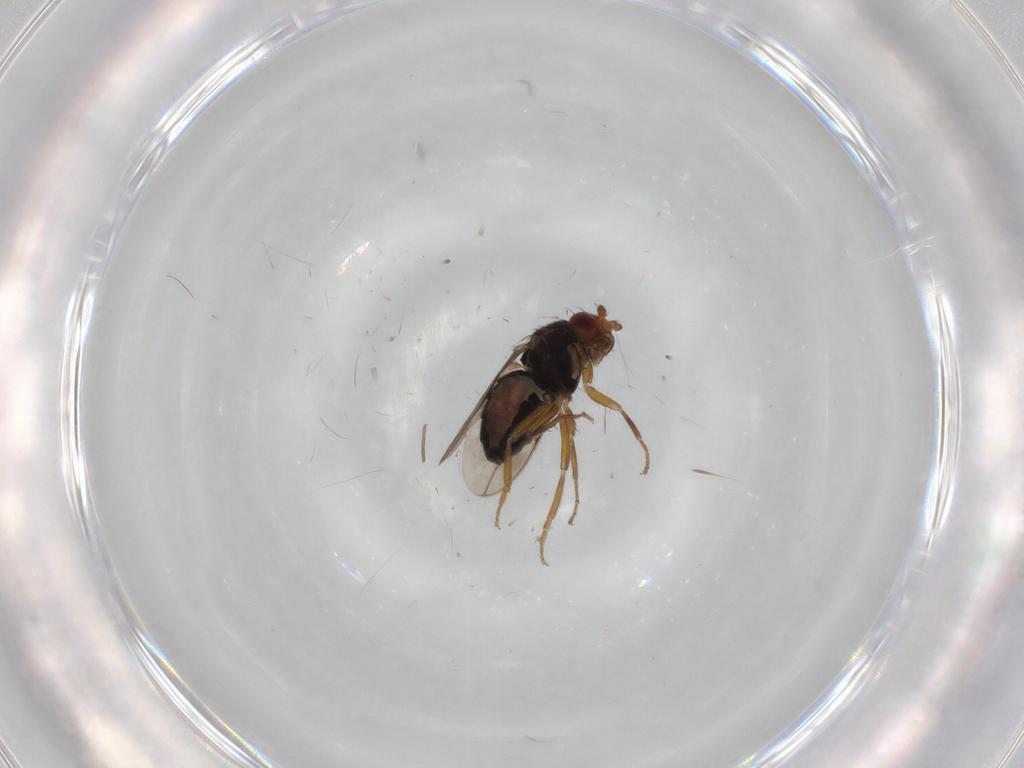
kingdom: Animalia
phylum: Arthropoda
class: Insecta
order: Diptera
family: Sphaeroceridae
